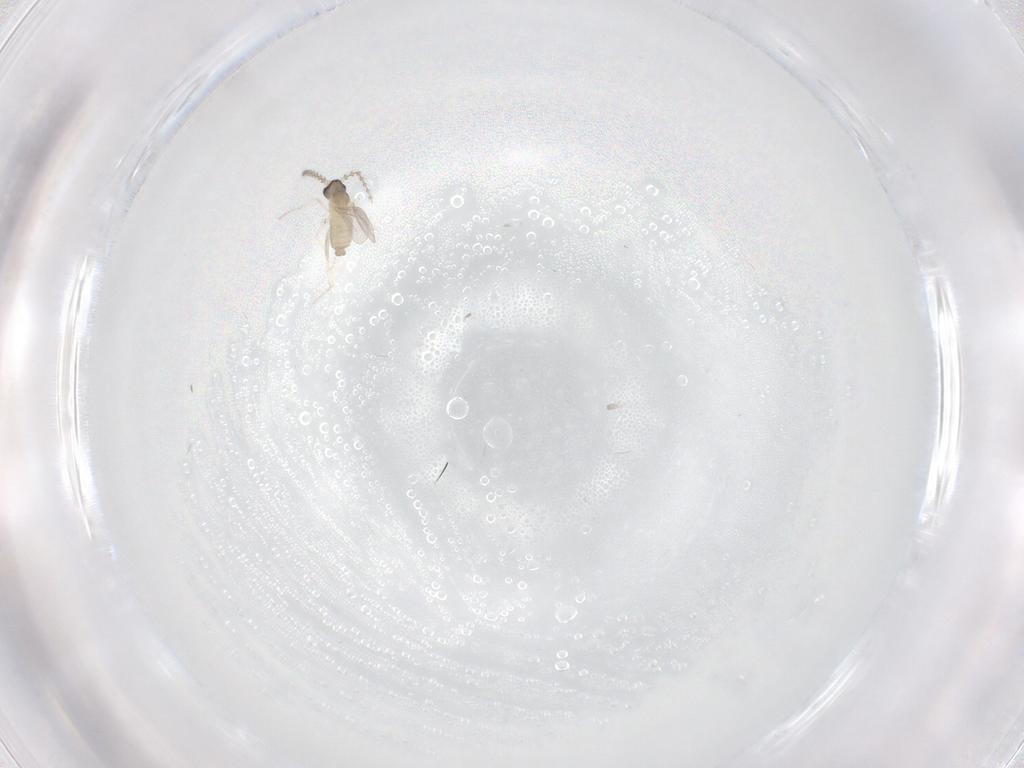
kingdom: Animalia
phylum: Arthropoda
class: Insecta
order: Diptera
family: Cecidomyiidae
